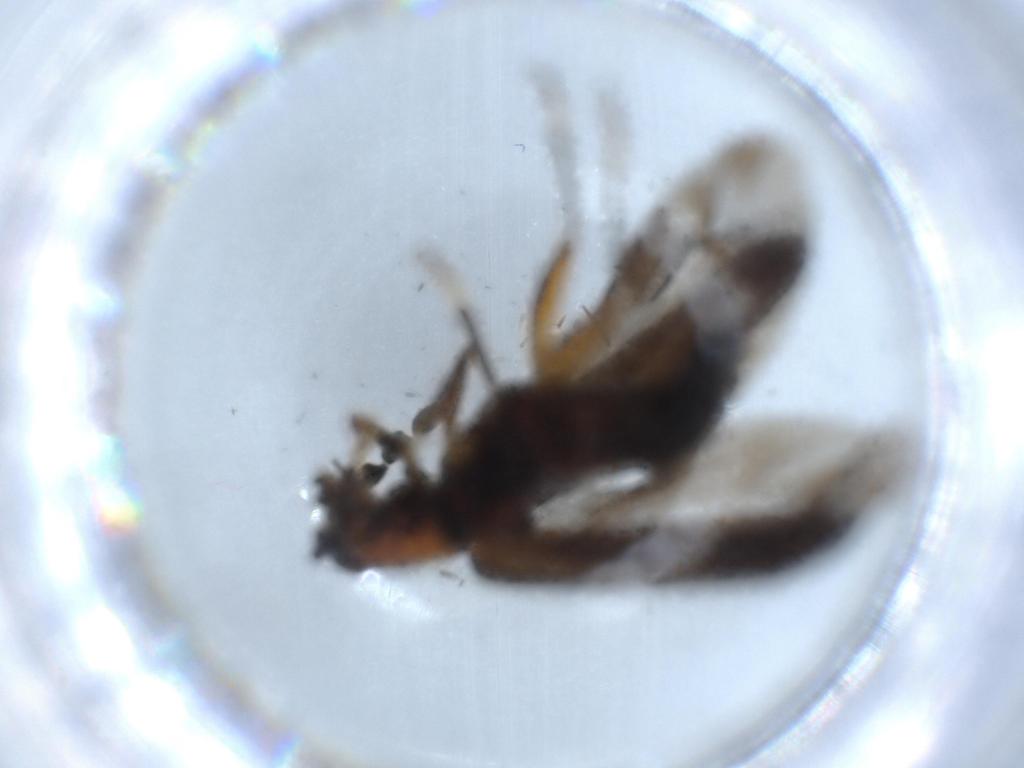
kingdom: Animalia
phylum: Arthropoda
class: Insecta
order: Coleoptera
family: Cleridae
